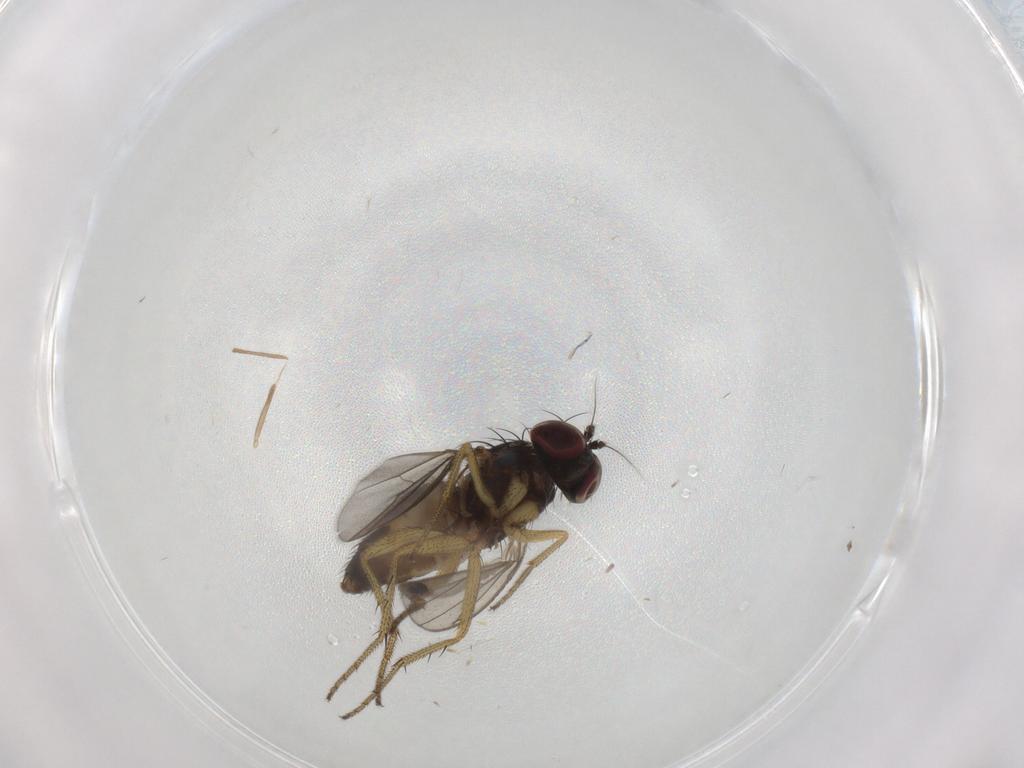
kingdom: Animalia
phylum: Arthropoda
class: Insecta
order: Diptera
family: Dolichopodidae
